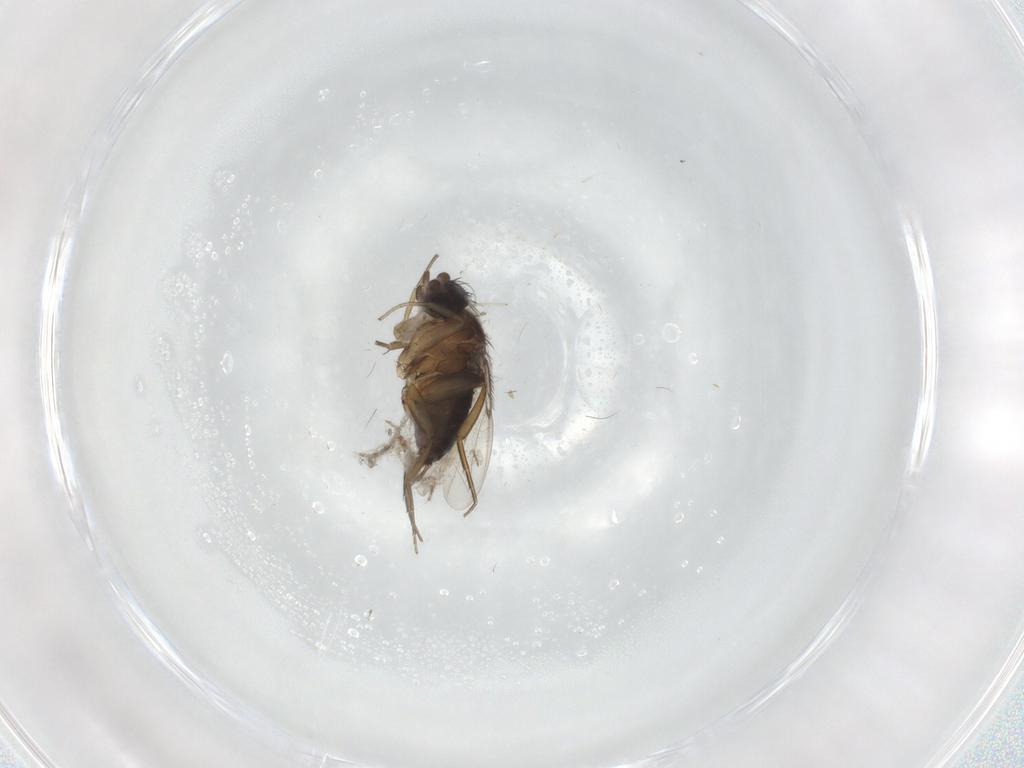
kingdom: Animalia
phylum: Arthropoda
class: Insecta
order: Diptera
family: Chironomidae
